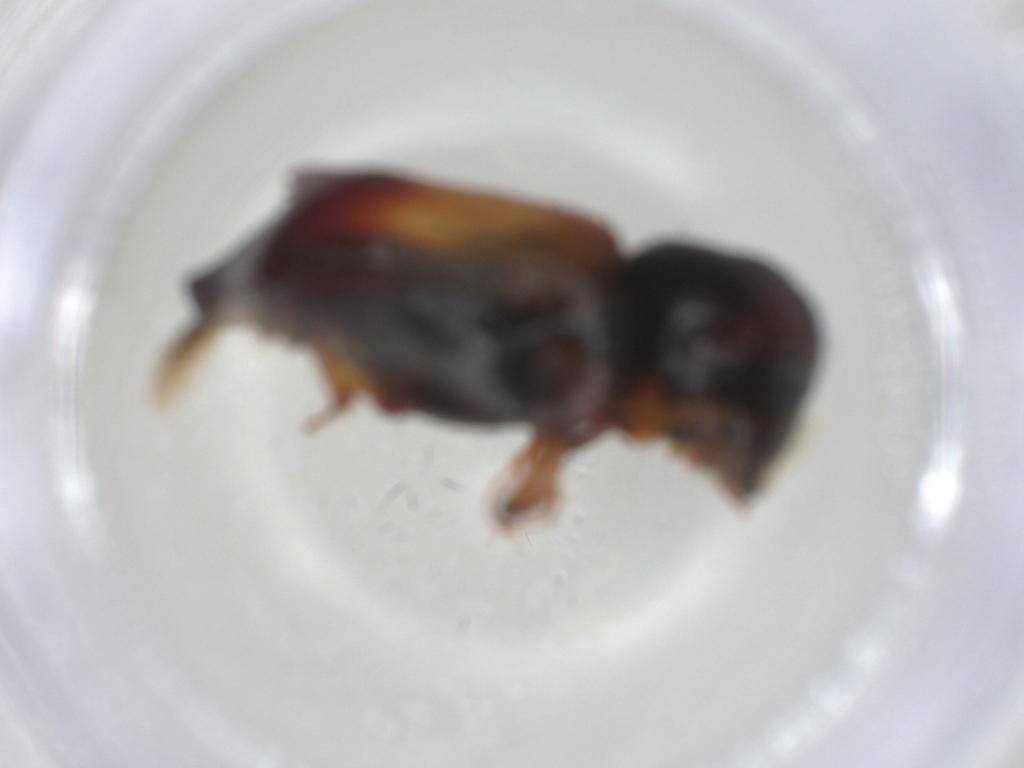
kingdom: Animalia
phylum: Arthropoda
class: Insecta
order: Coleoptera
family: Bostrichidae
